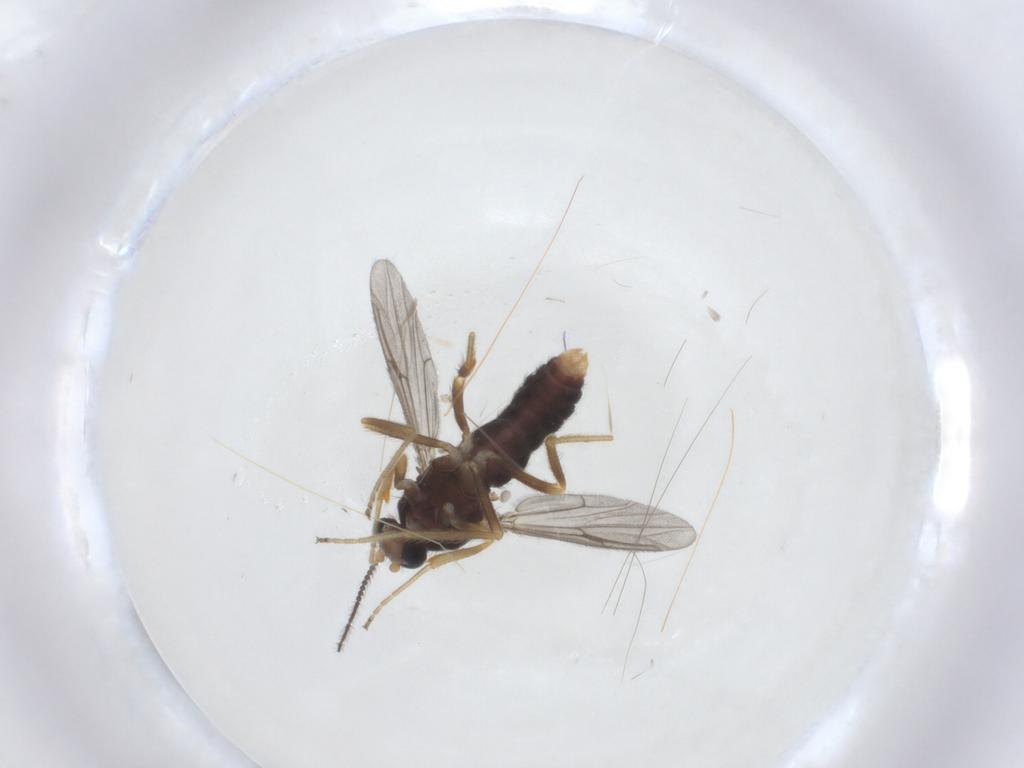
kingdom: Animalia
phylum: Arthropoda
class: Insecta
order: Diptera
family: Ceratopogonidae
